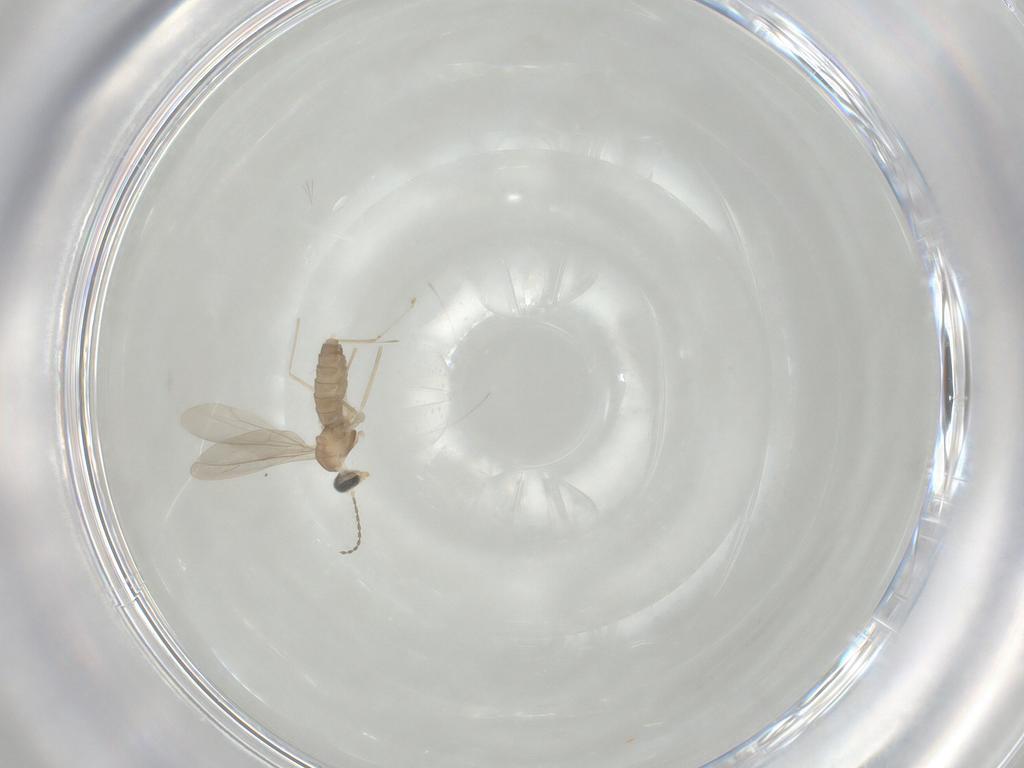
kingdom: Animalia
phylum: Arthropoda
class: Insecta
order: Diptera
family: Cecidomyiidae
